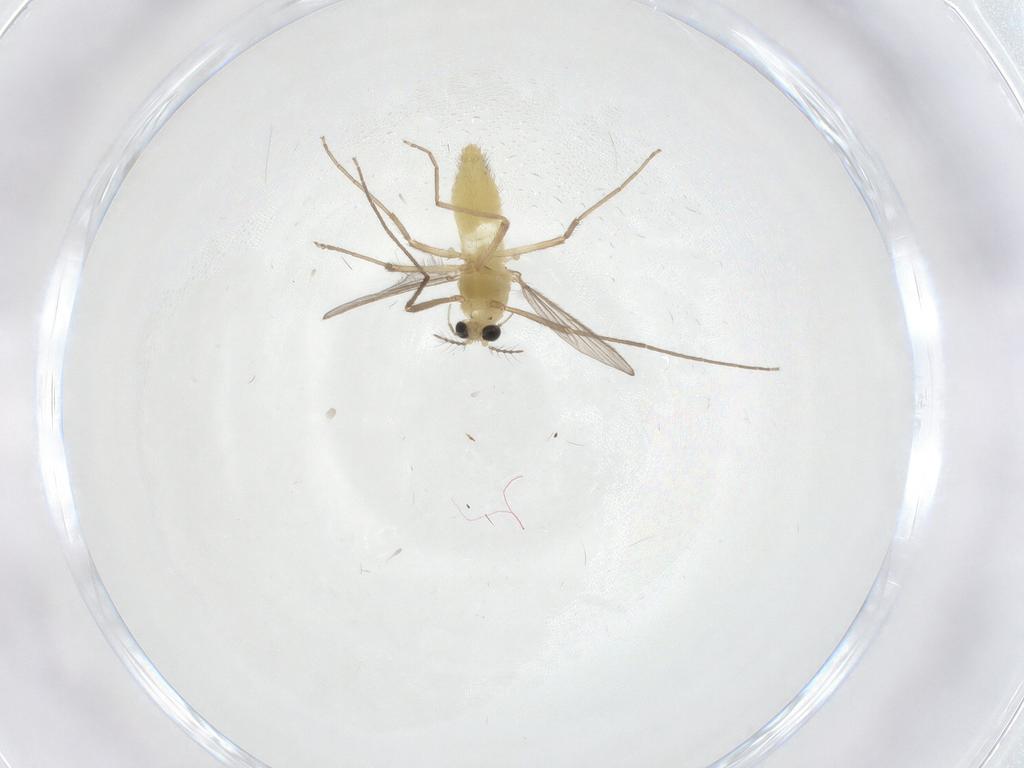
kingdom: Animalia
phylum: Arthropoda
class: Insecta
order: Diptera
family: Chironomidae
